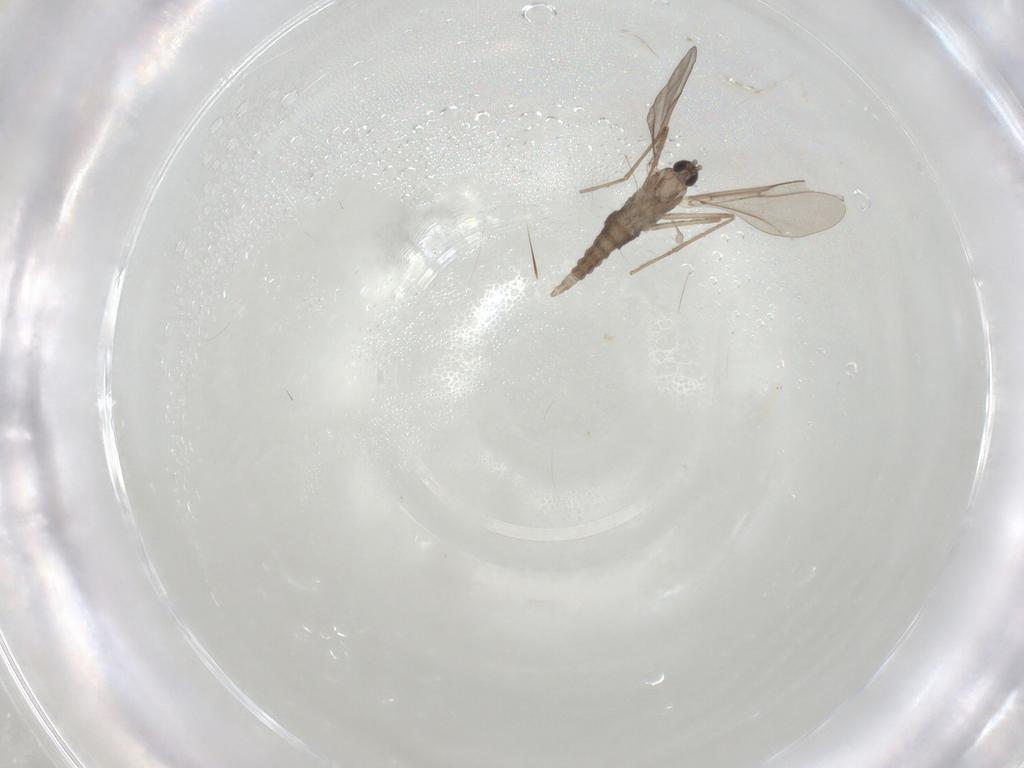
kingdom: Animalia
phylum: Arthropoda
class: Insecta
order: Diptera
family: Cecidomyiidae
